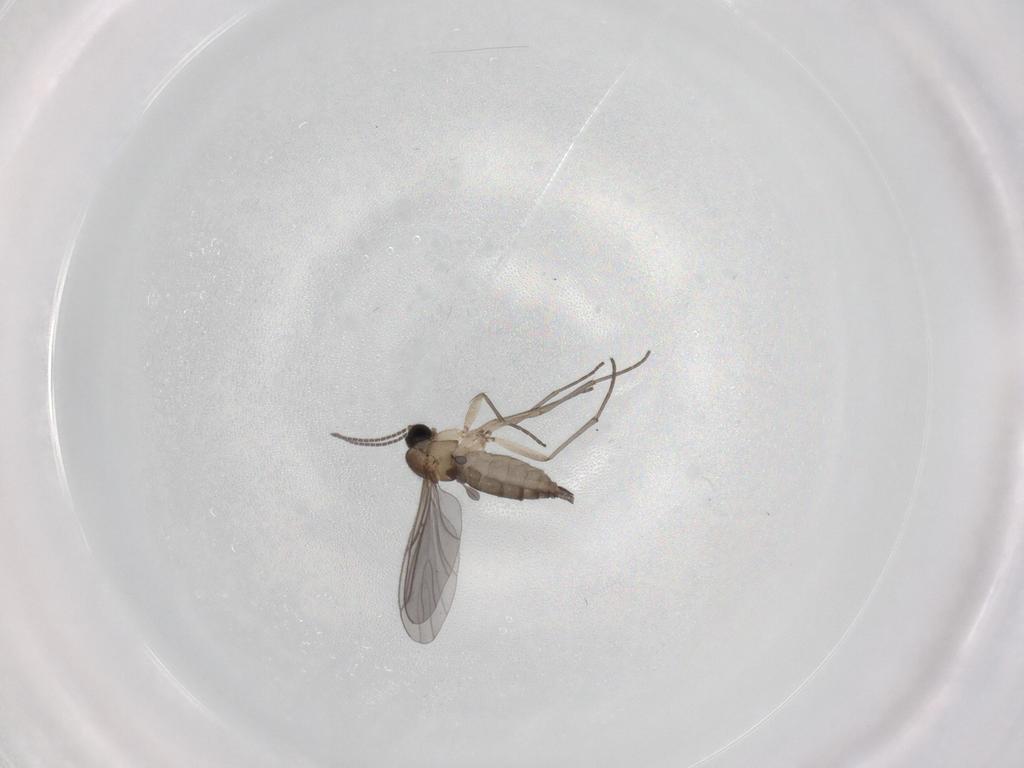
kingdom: Animalia
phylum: Arthropoda
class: Insecta
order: Diptera
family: Sciaridae
